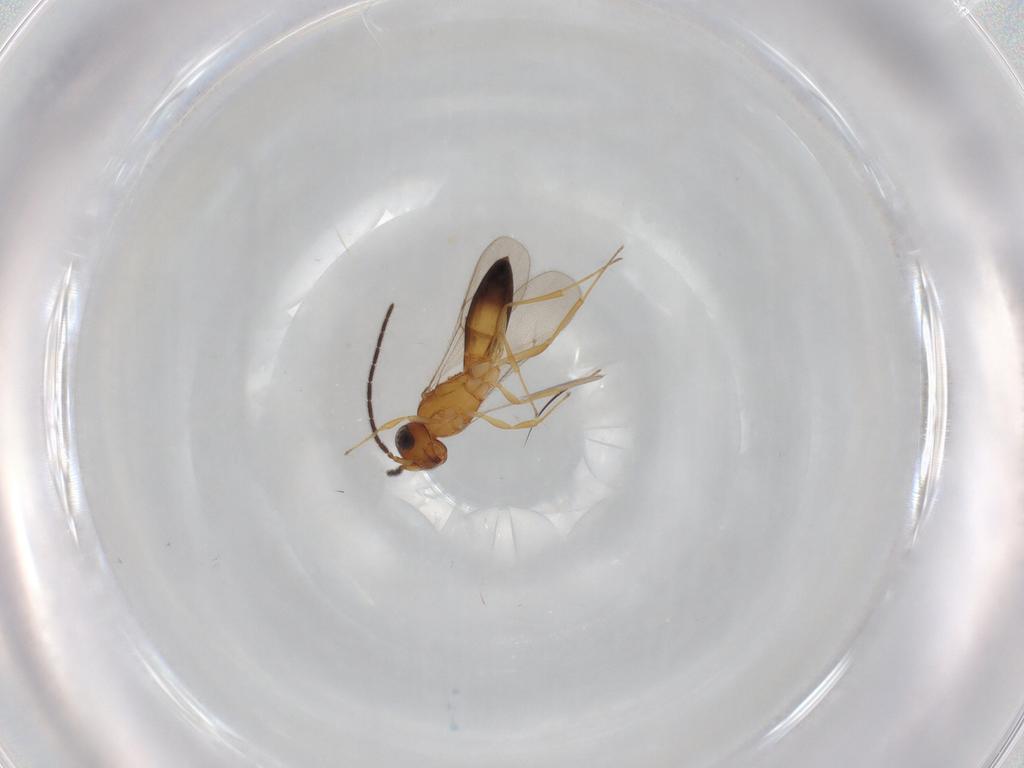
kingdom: Animalia
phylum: Arthropoda
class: Insecta
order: Hymenoptera
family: Scelionidae
